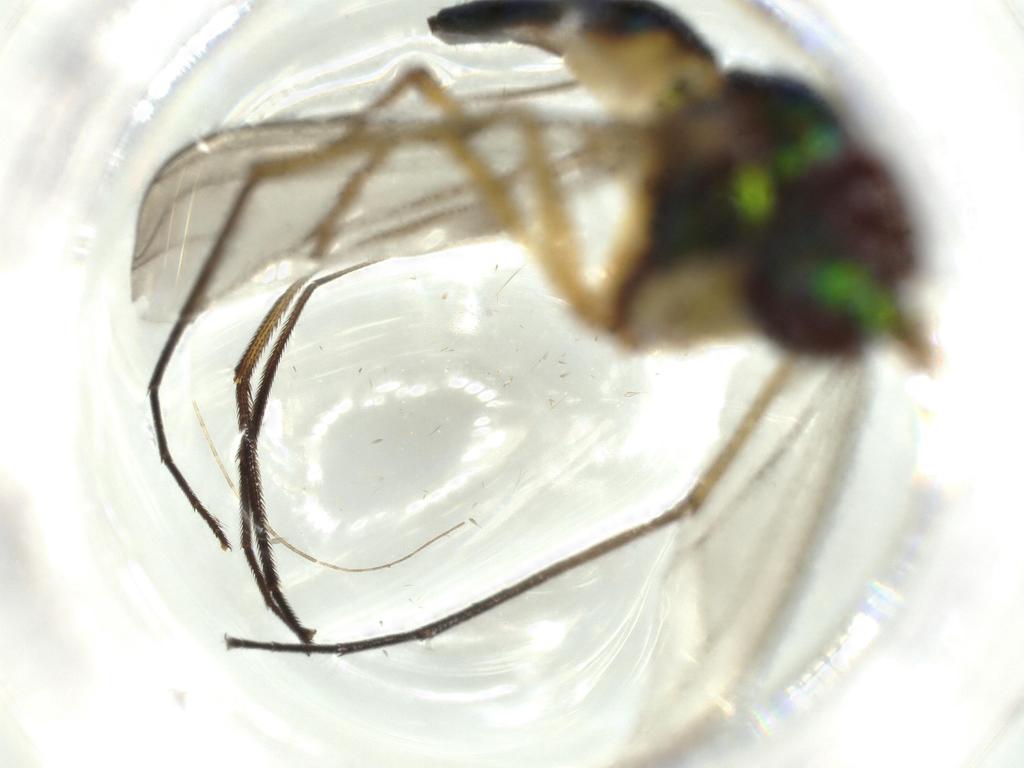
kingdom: Animalia
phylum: Arthropoda
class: Insecta
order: Diptera
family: Dolichopodidae
